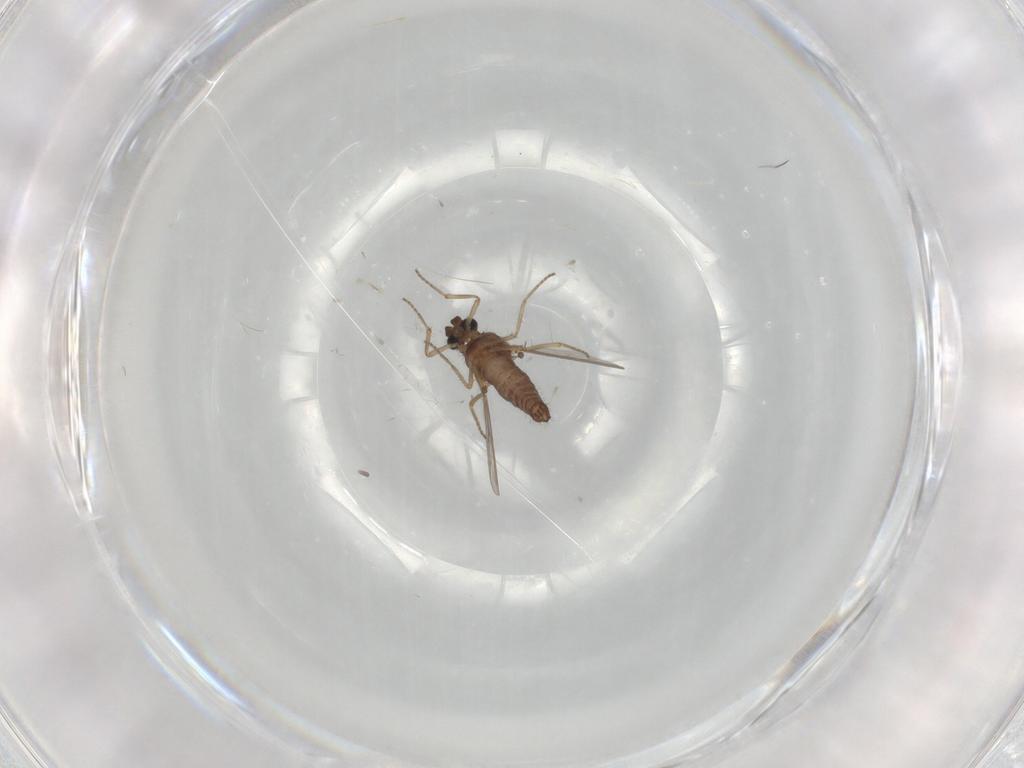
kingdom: Animalia
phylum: Arthropoda
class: Insecta
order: Diptera
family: Ceratopogonidae
